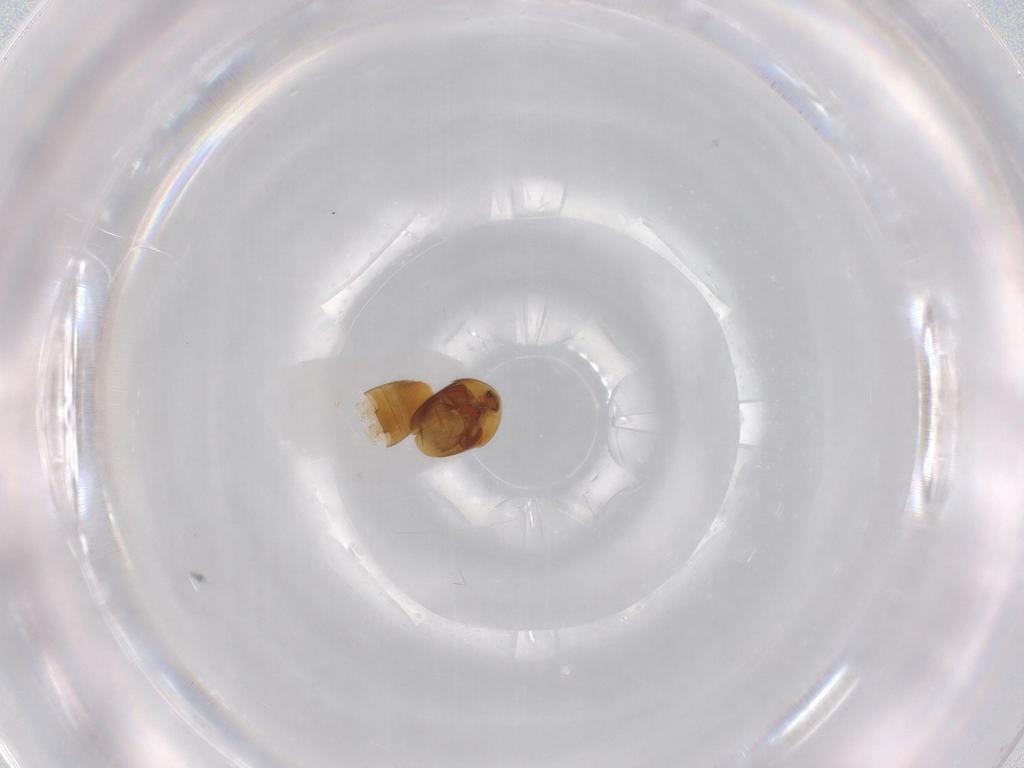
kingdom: Animalia
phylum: Arthropoda
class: Insecta
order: Coleoptera
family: Corylophidae
